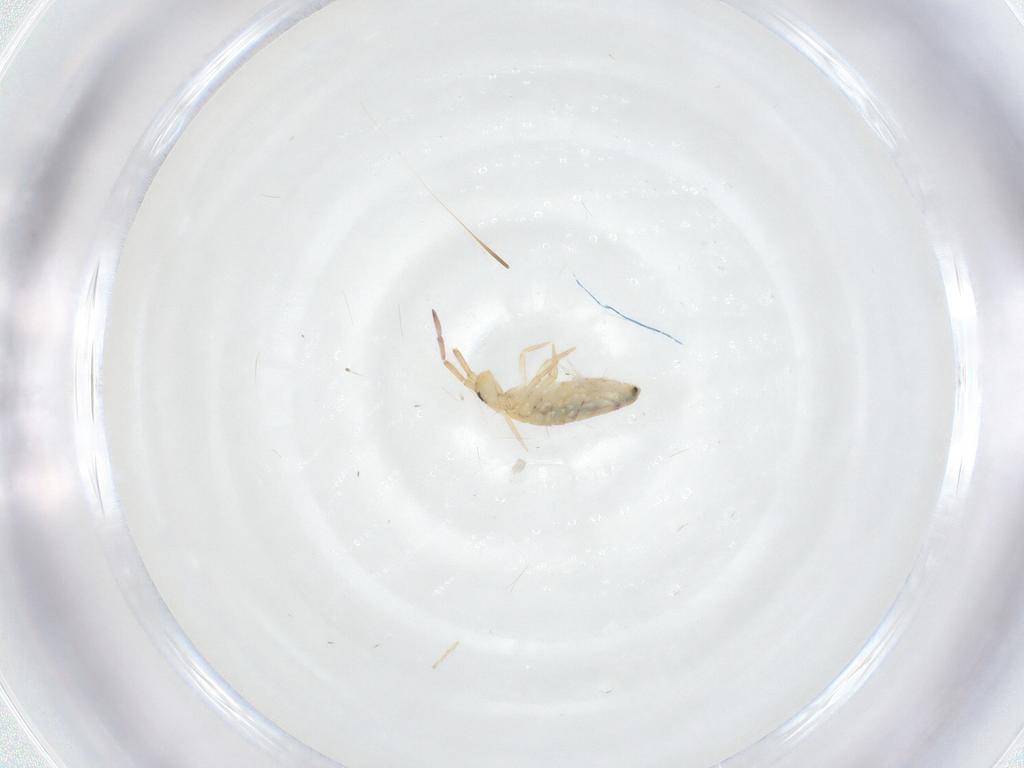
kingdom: Animalia
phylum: Arthropoda
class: Collembola
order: Entomobryomorpha
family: Entomobryidae
